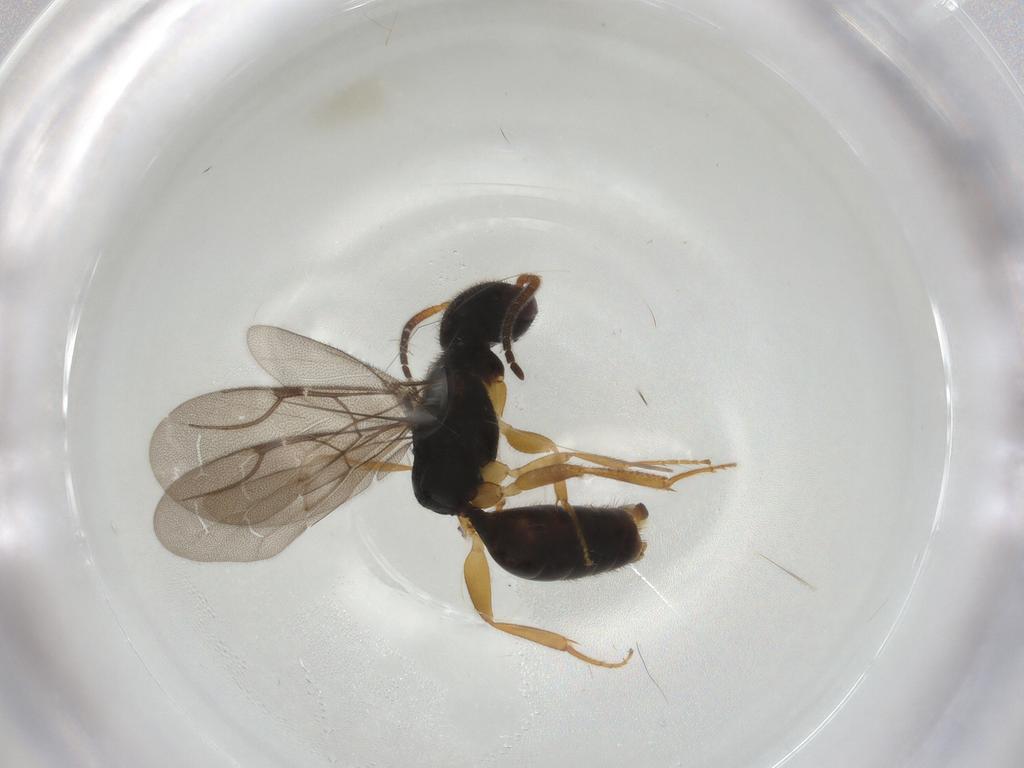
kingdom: Animalia
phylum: Arthropoda
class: Insecta
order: Hymenoptera
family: Bethylidae
